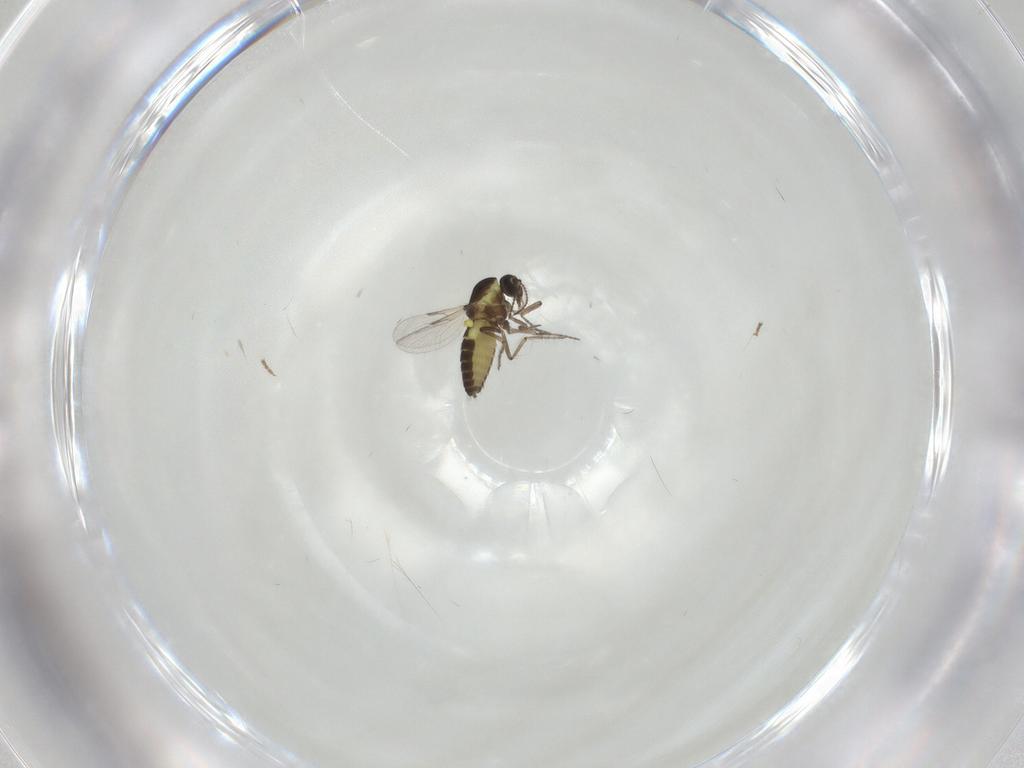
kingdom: Animalia
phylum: Arthropoda
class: Insecta
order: Diptera
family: Ceratopogonidae
